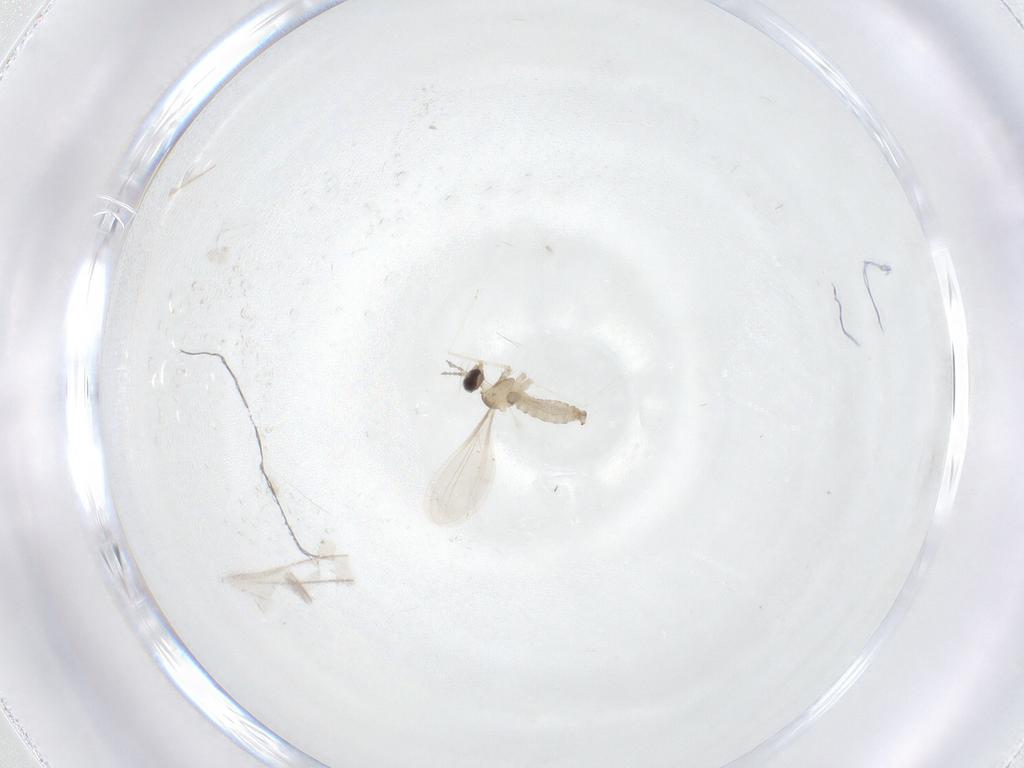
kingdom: Animalia
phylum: Arthropoda
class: Insecta
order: Diptera
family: Cecidomyiidae
